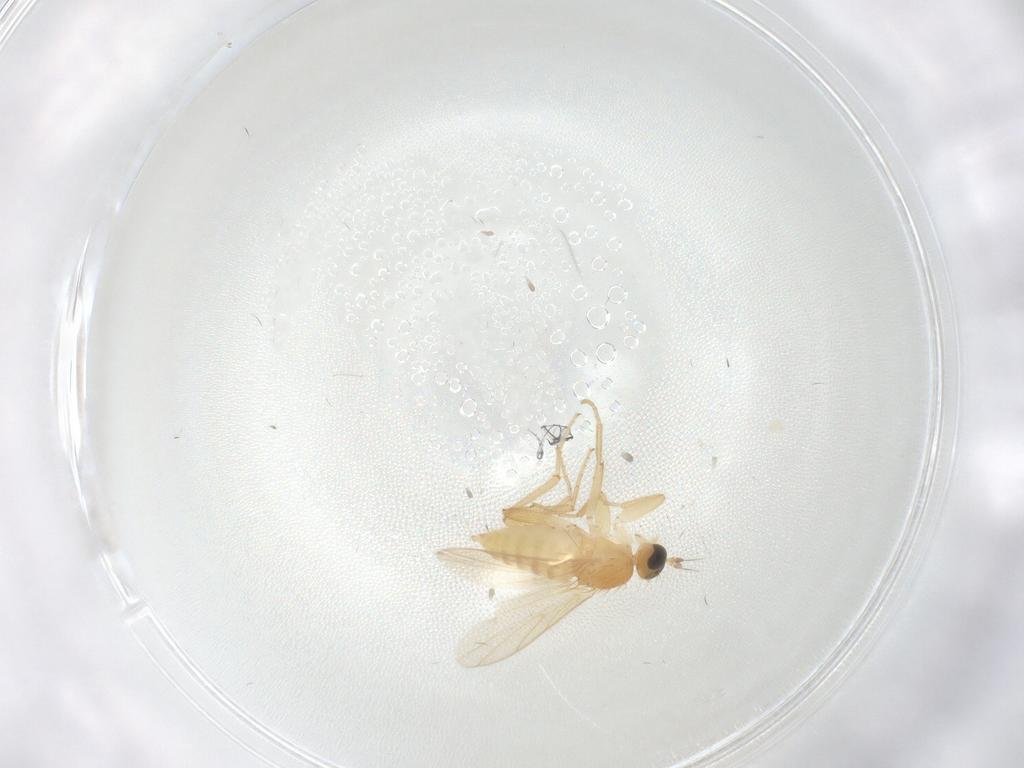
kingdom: Animalia
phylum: Arthropoda
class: Insecta
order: Diptera
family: Hybotidae
